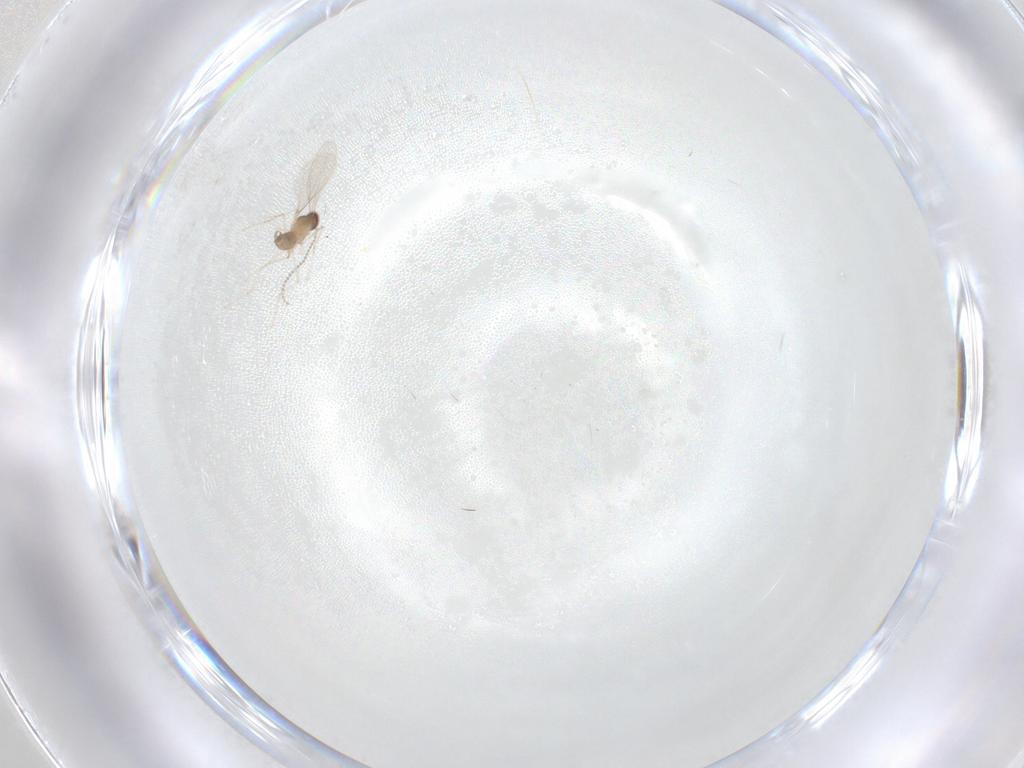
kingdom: Animalia
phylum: Arthropoda
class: Insecta
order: Diptera
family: Cecidomyiidae
